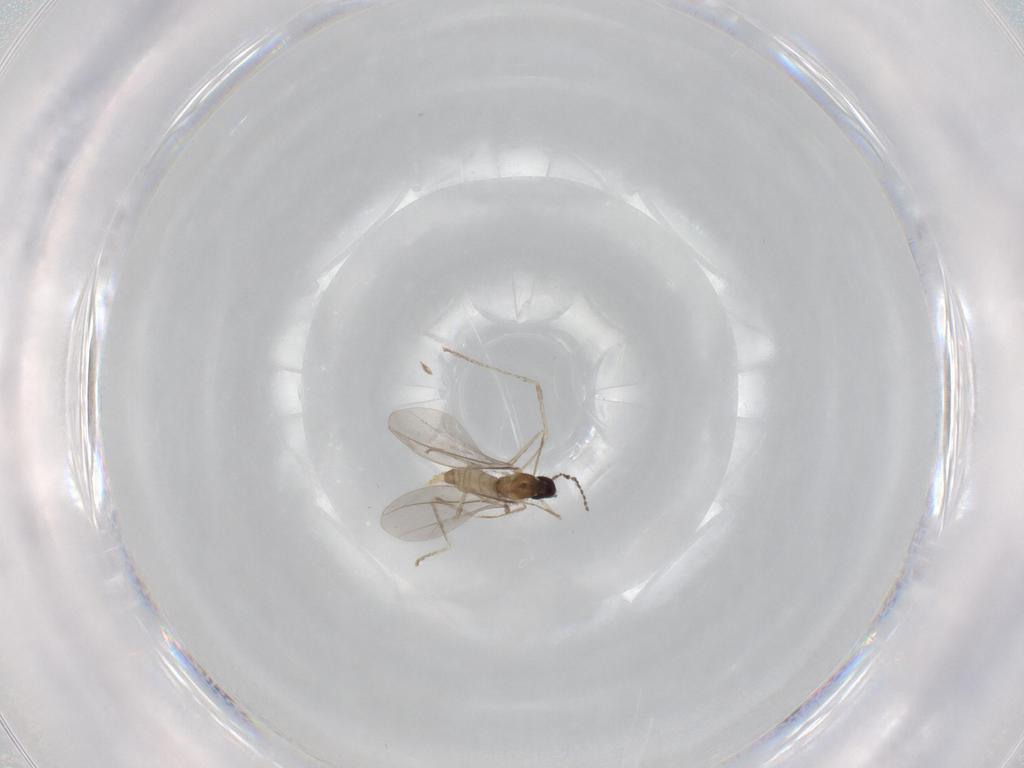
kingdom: Animalia
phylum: Arthropoda
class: Insecta
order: Diptera
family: Cecidomyiidae
